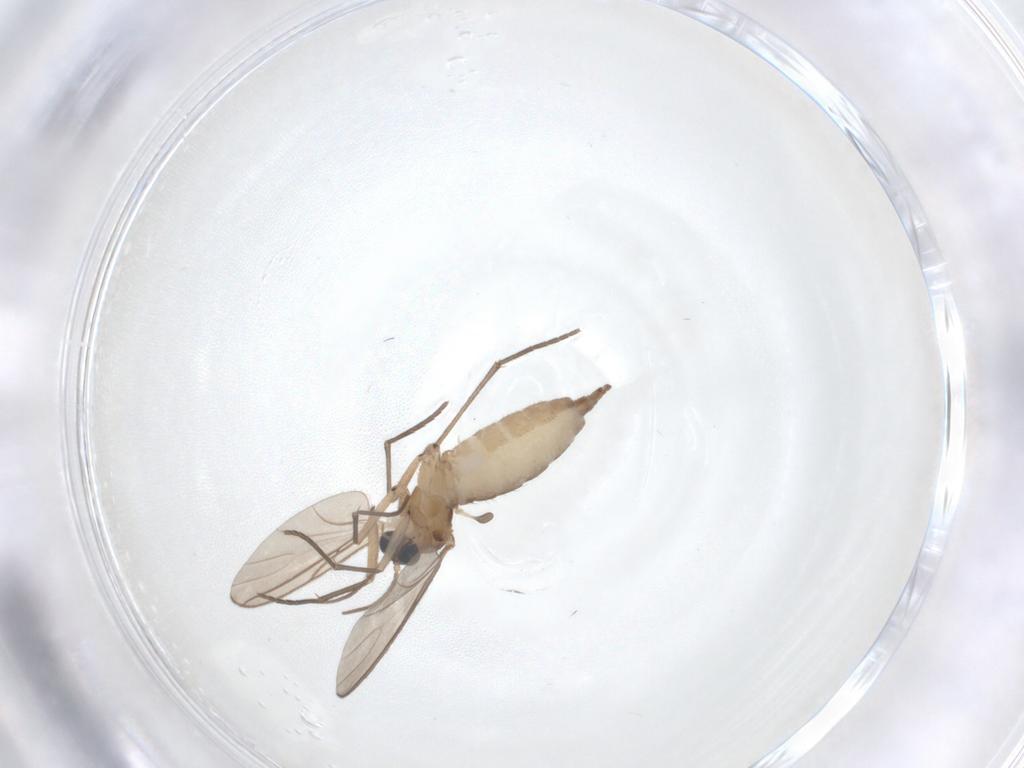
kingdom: Animalia
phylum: Arthropoda
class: Insecta
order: Diptera
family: Sciaridae
